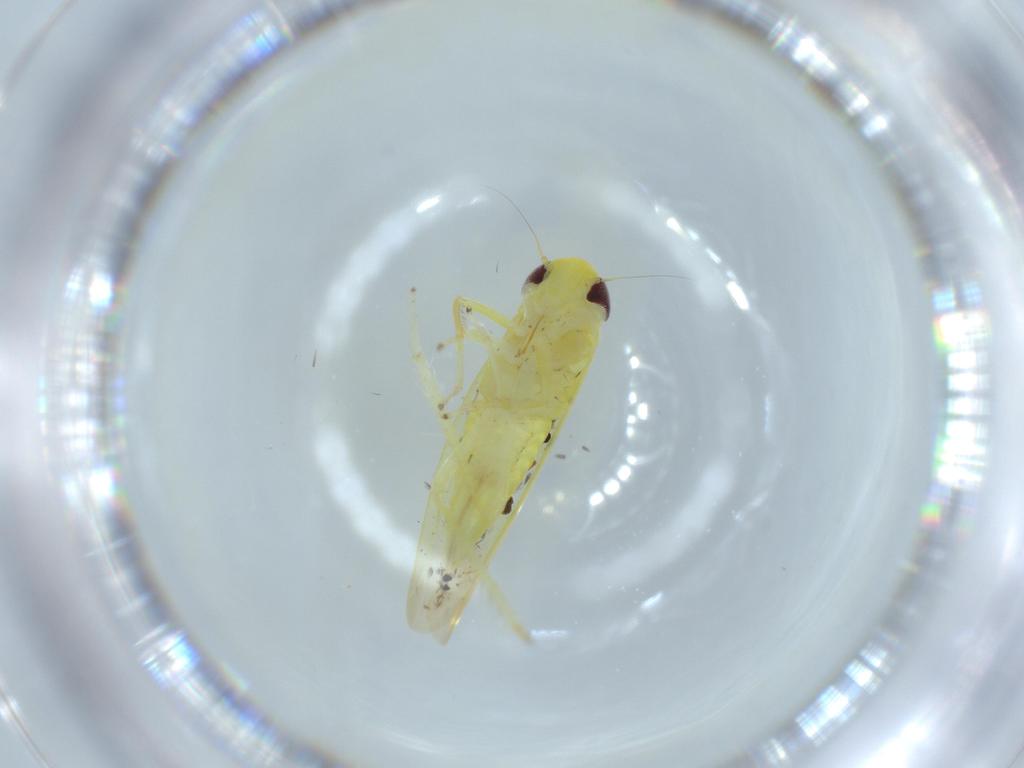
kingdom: Animalia
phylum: Arthropoda
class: Insecta
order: Hemiptera
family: Cicadellidae
